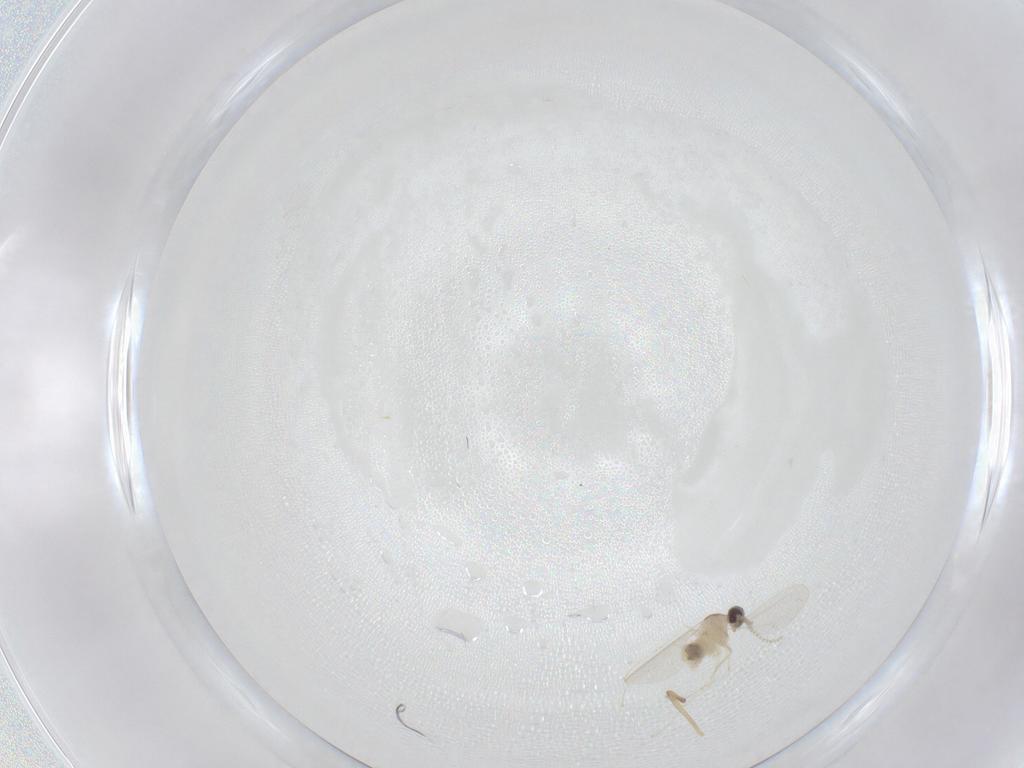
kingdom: Animalia
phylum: Arthropoda
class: Insecta
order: Diptera
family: Chironomidae
